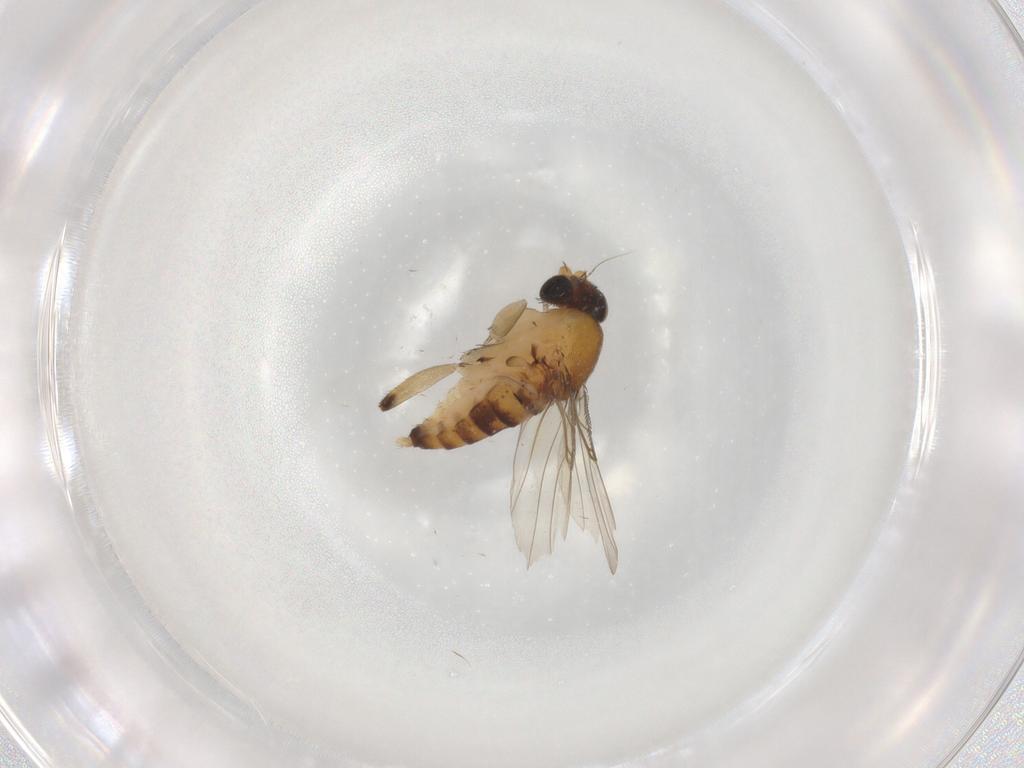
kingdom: Animalia
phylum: Arthropoda
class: Insecta
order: Diptera
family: Phoridae
